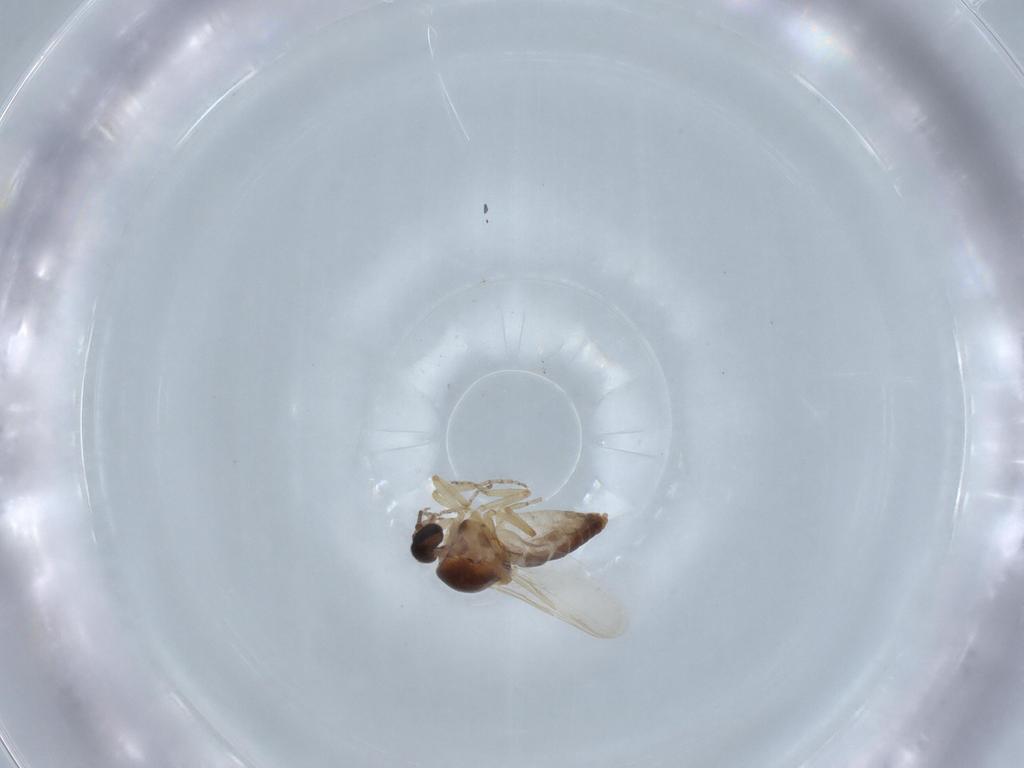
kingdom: Animalia
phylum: Arthropoda
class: Insecta
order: Diptera
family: Ceratopogonidae
